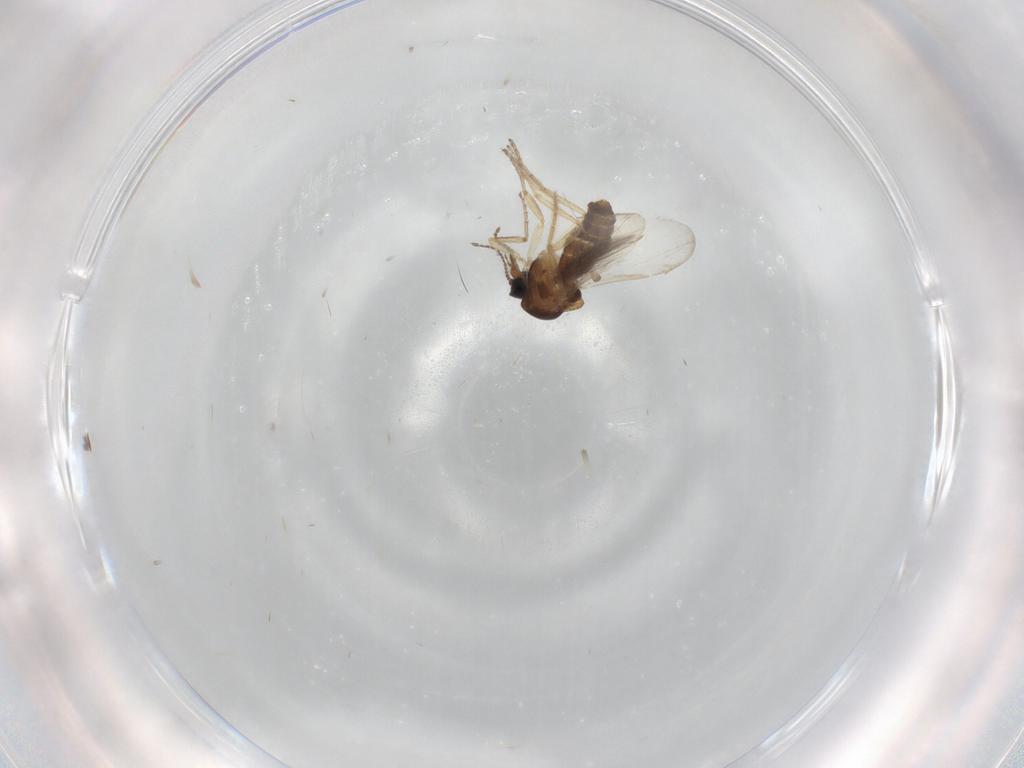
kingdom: Animalia
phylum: Arthropoda
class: Insecta
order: Diptera
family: Ceratopogonidae
